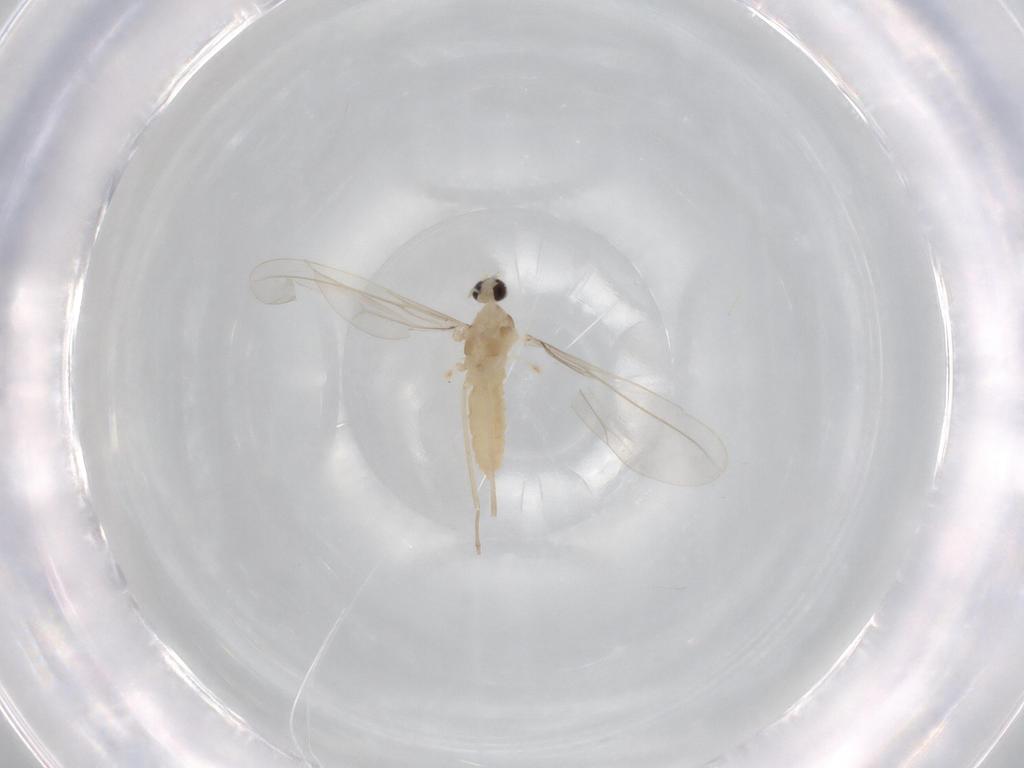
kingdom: Animalia
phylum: Arthropoda
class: Insecta
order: Diptera
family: Cecidomyiidae
